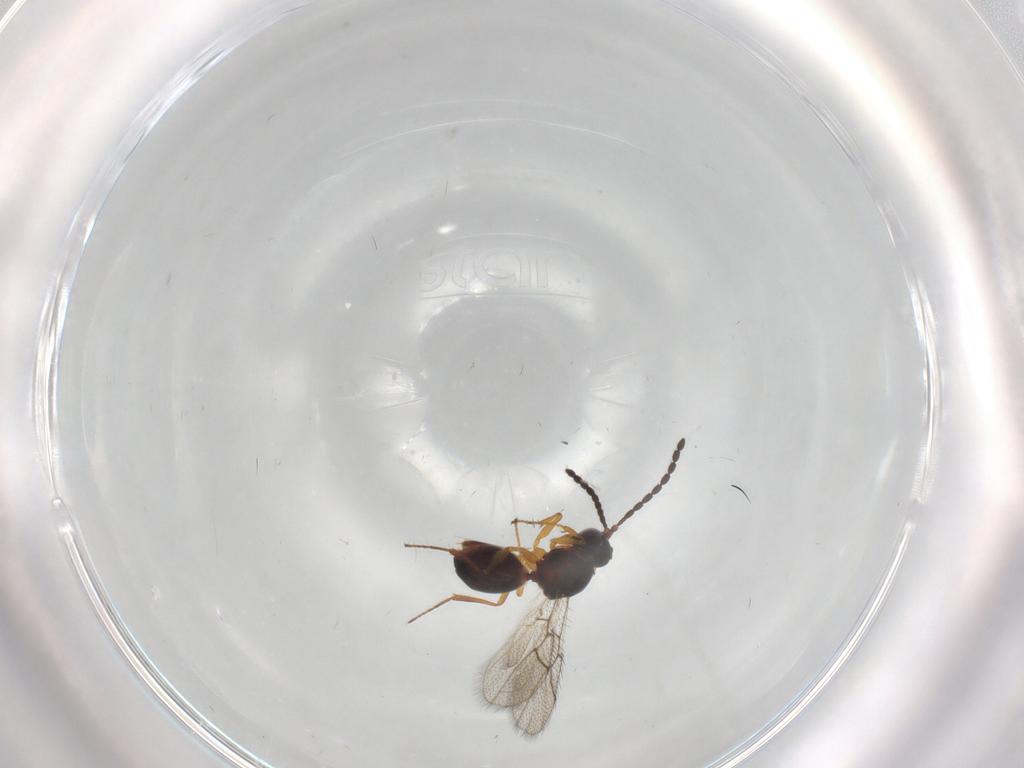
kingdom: Animalia
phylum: Arthropoda
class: Insecta
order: Hymenoptera
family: Figitidae
